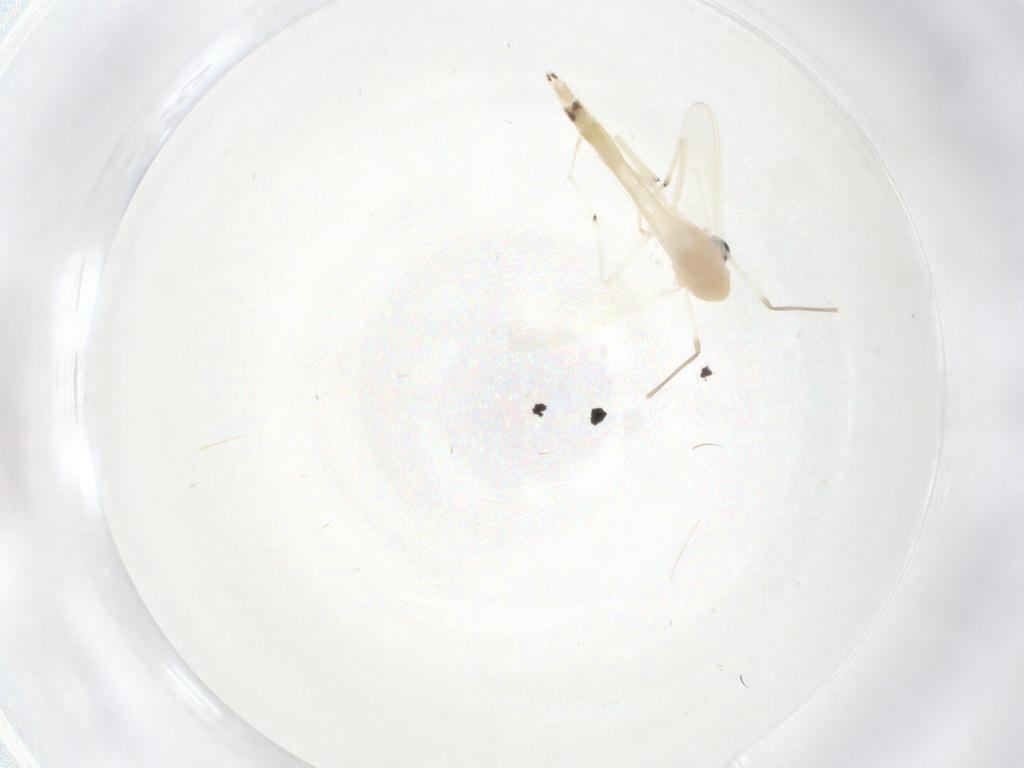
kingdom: Animalia
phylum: Arthropoda
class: Insecta
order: Diptera
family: Chironomidae
